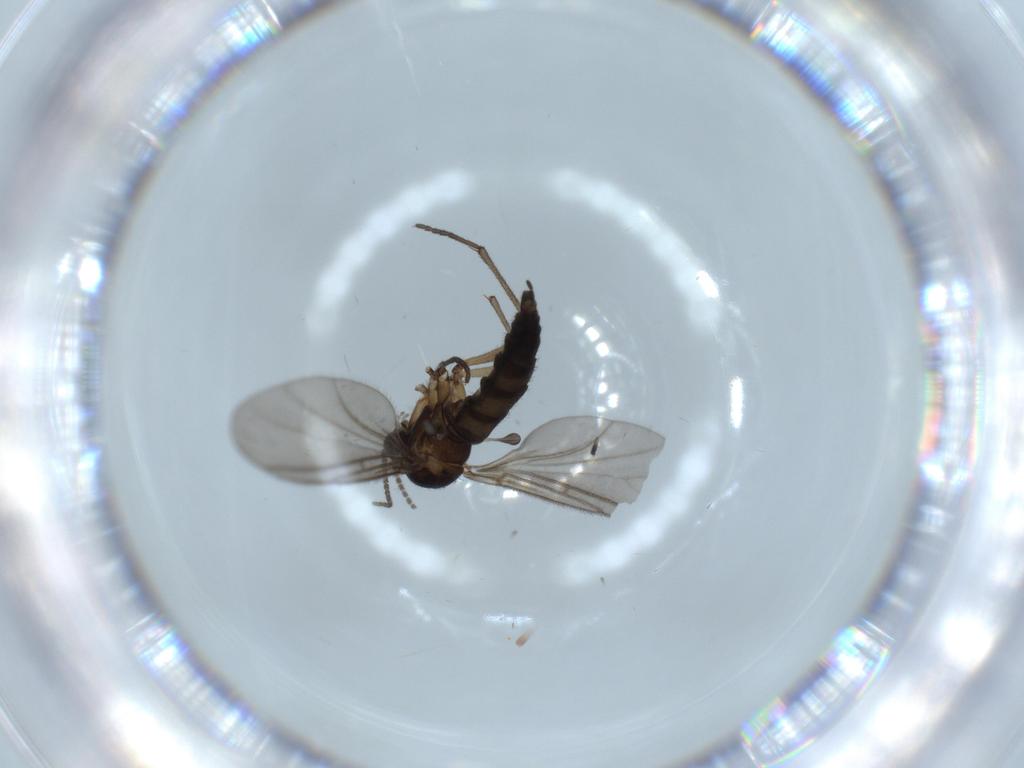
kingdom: Animalia
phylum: Arthropoda
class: Insecta
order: Diptera
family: Sciaridae
